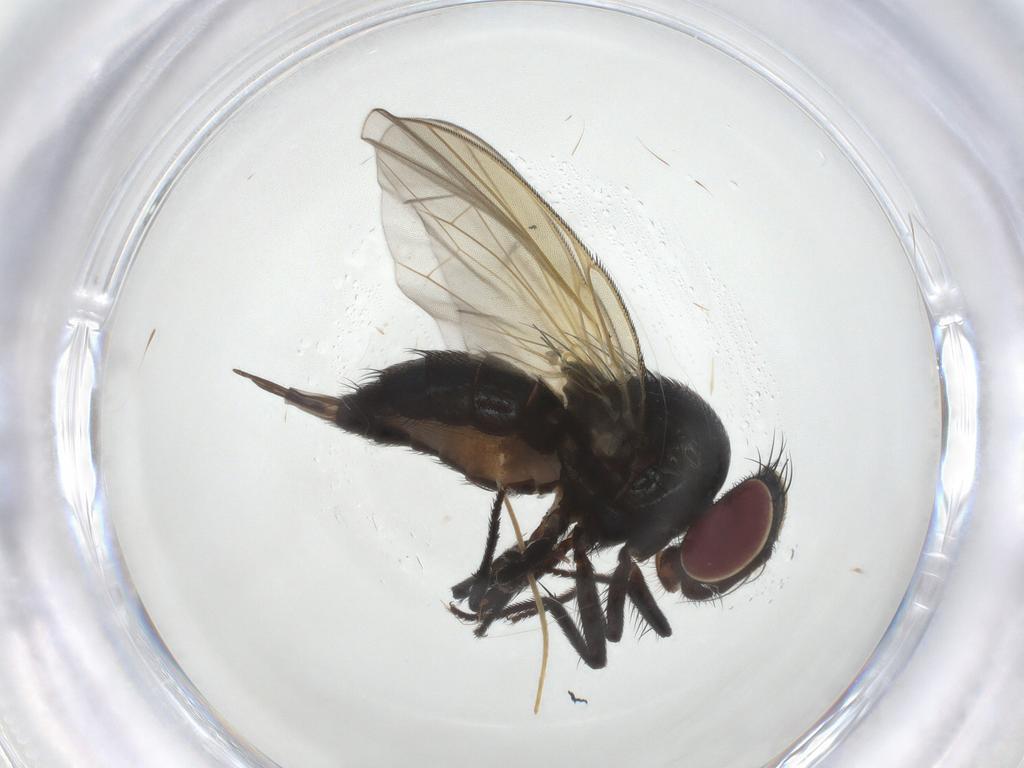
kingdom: Animalia
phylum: Arthropoda
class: Insecta
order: Diptera
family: Lonchaeidae
